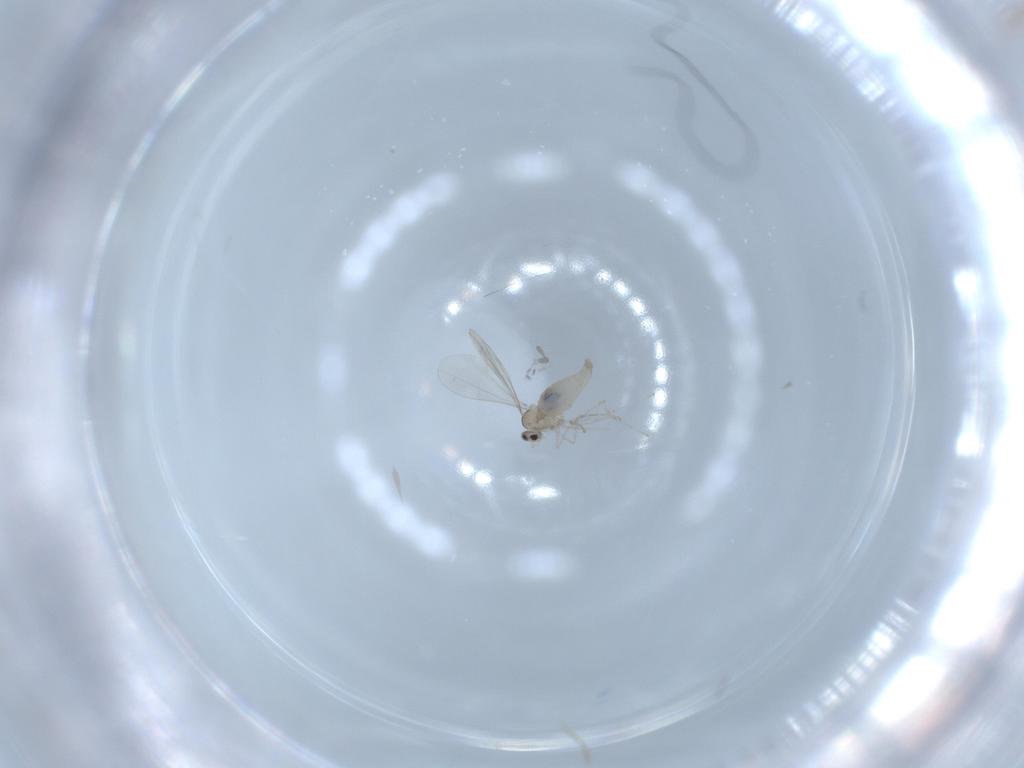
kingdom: Animalia
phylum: Arthropoda
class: Insecta
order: Diptera
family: Cecidomyiidae
